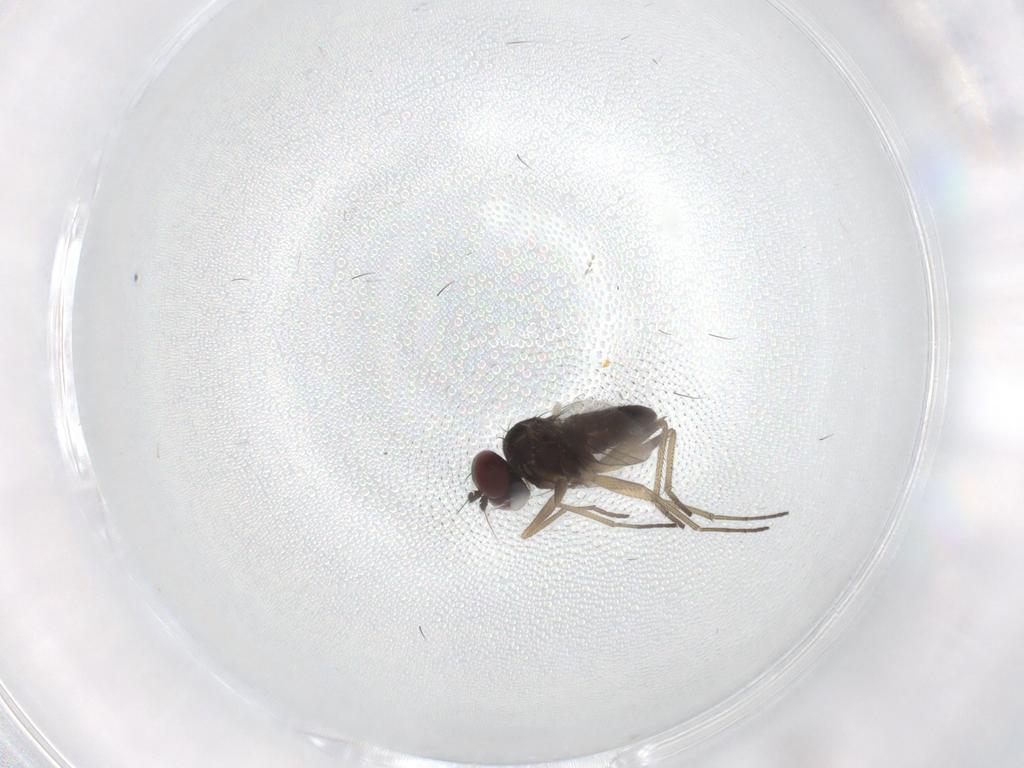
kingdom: Animalia
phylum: Arthropoda
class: Insecta
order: Diptera
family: Dolichopodidae
